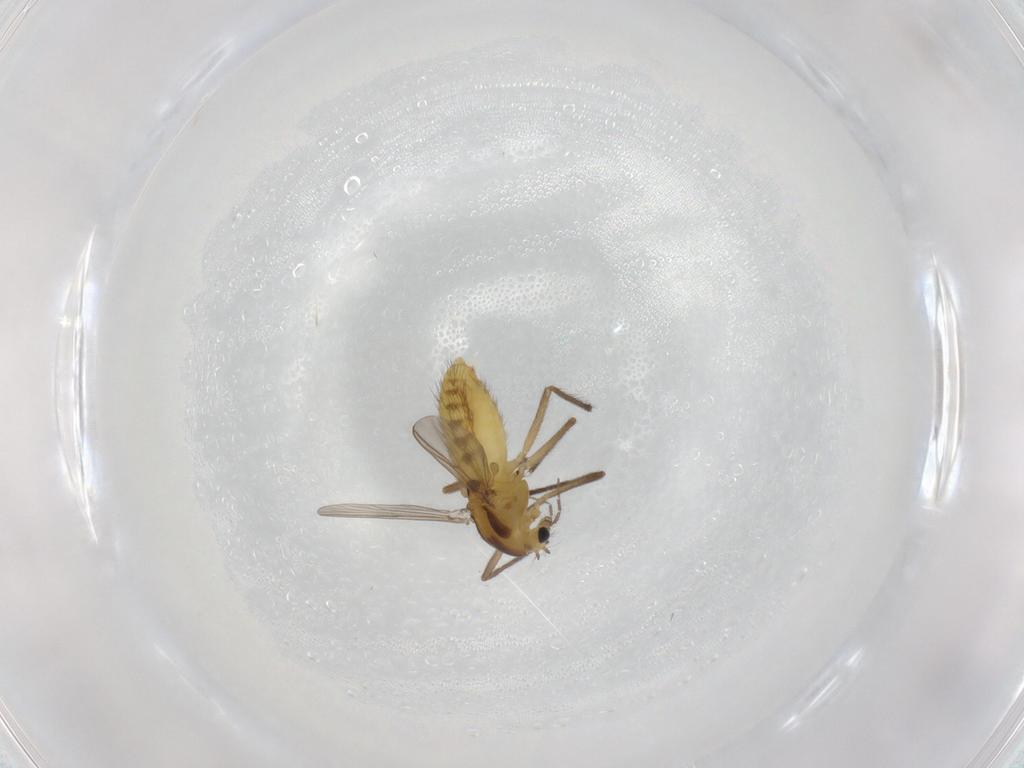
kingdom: Animalia
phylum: Arthropoda
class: Insecta
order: Diptera
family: Chironomidae
